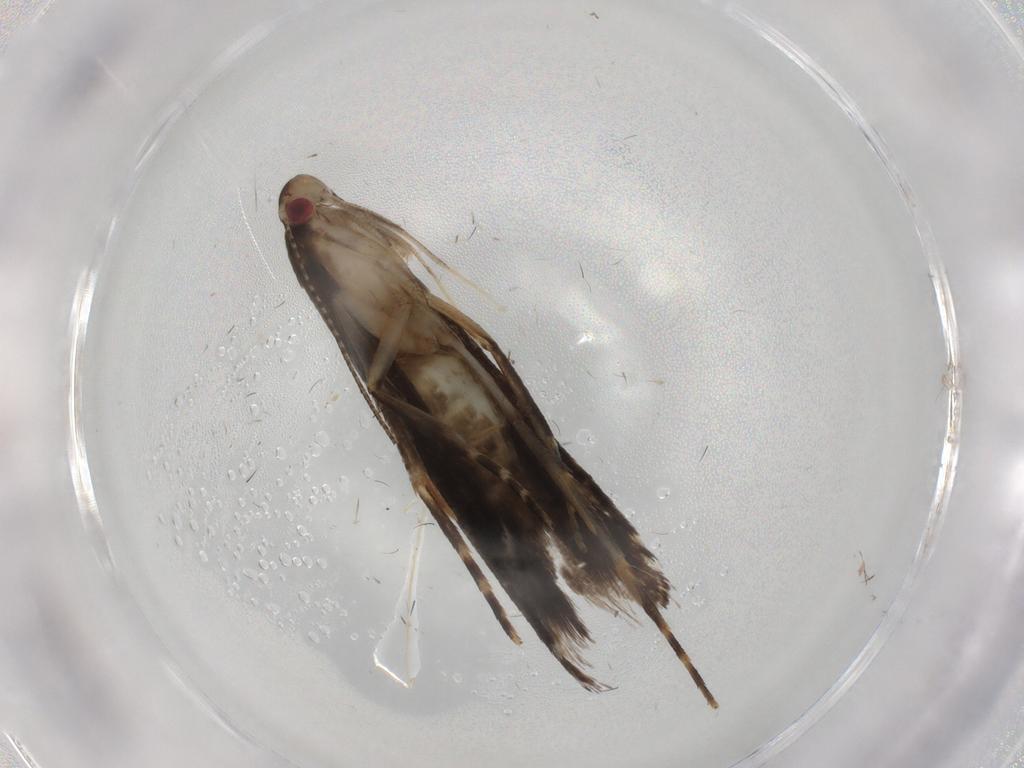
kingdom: Animalia
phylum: Arthropoda
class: Insecta
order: Lepidoptera
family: Gelechiidae
